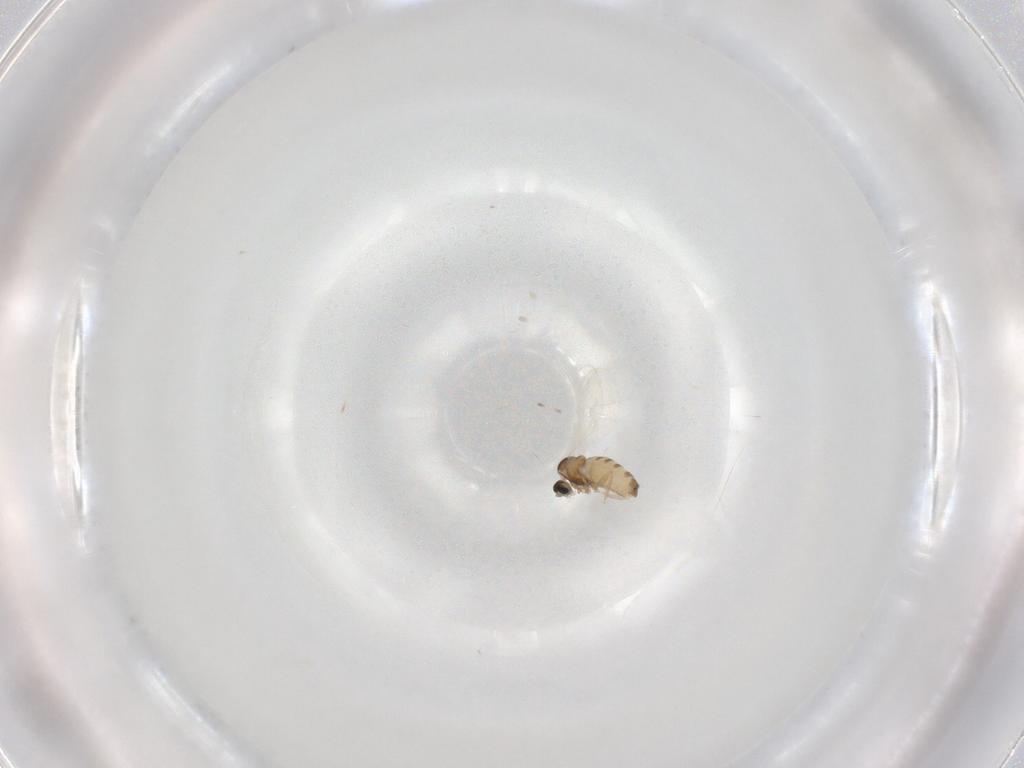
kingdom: Animalia
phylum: Arthropoda
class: Insecta
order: Diptera
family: Cecidomyiidae
